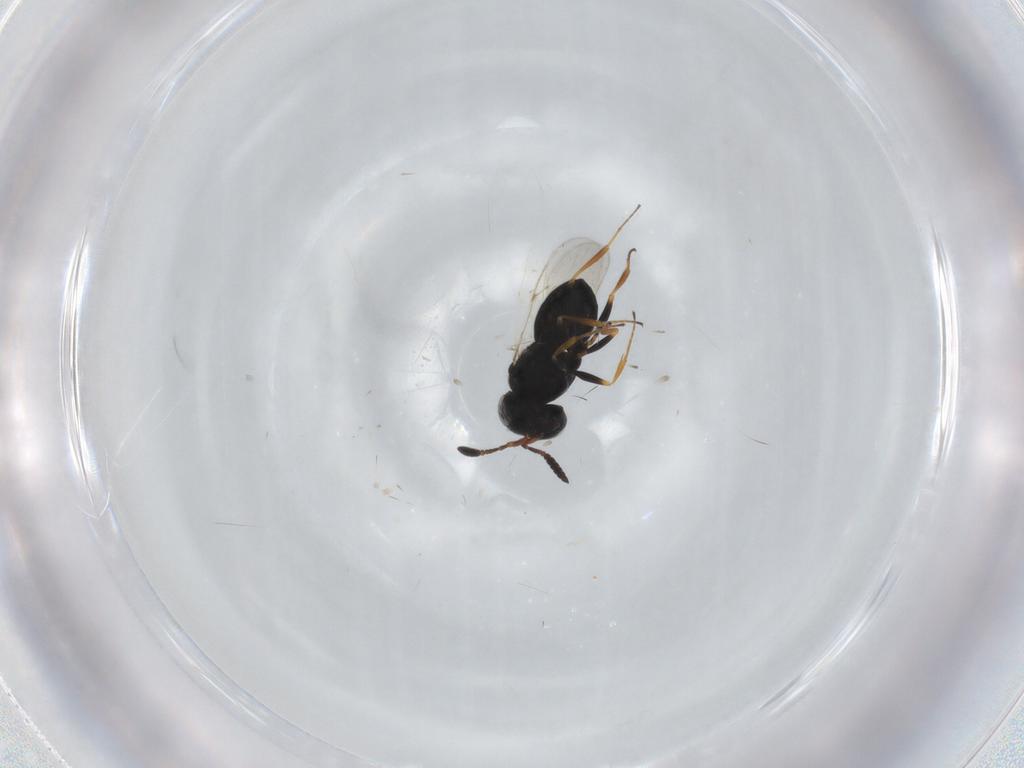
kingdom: Animalia
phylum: Arthropoda
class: Insecta
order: Coleoptera
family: Curculionidae
